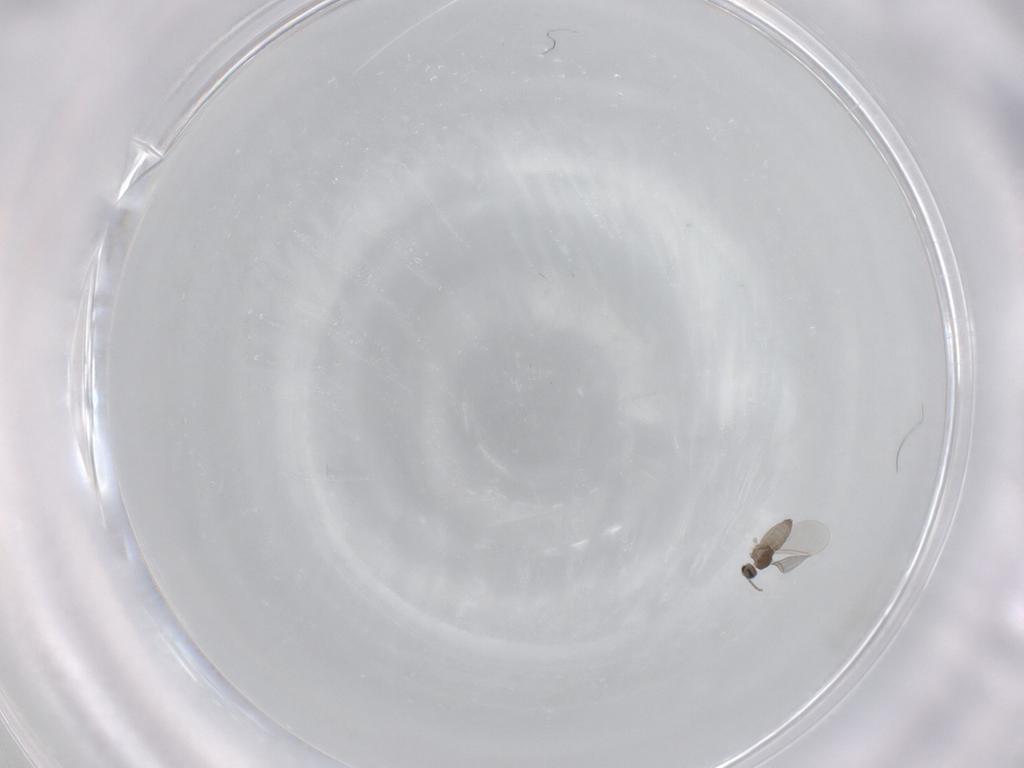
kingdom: Animalia
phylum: Arthropoda
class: Insecta
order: Diptera
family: Cecidomyiidae
